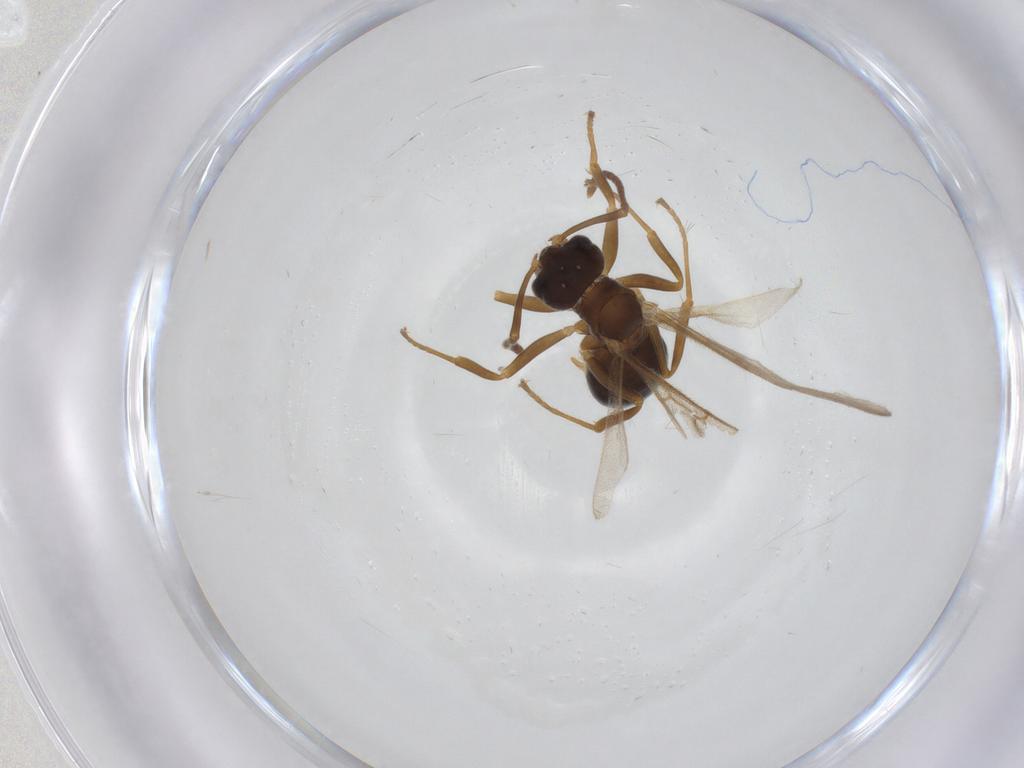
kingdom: Animalia
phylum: Arthropoda
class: Insecta
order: Hymenoptera
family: Formicidae
